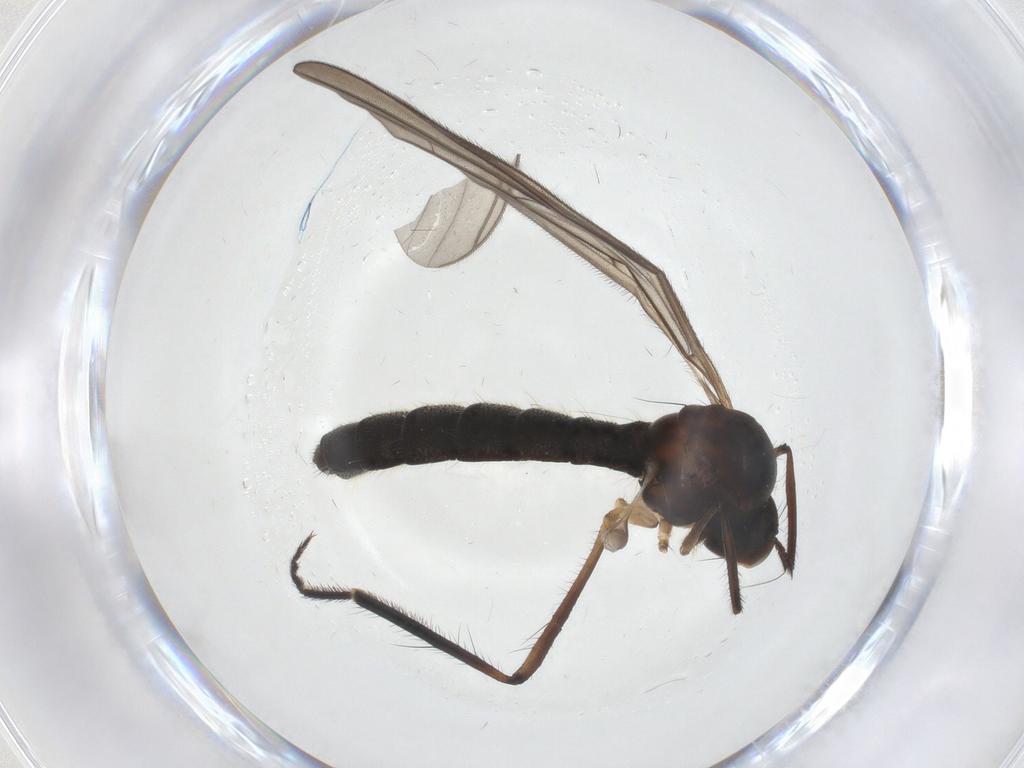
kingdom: Animalia
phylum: Arthropoda
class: Insecta
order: Diptera
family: Hybotidae
